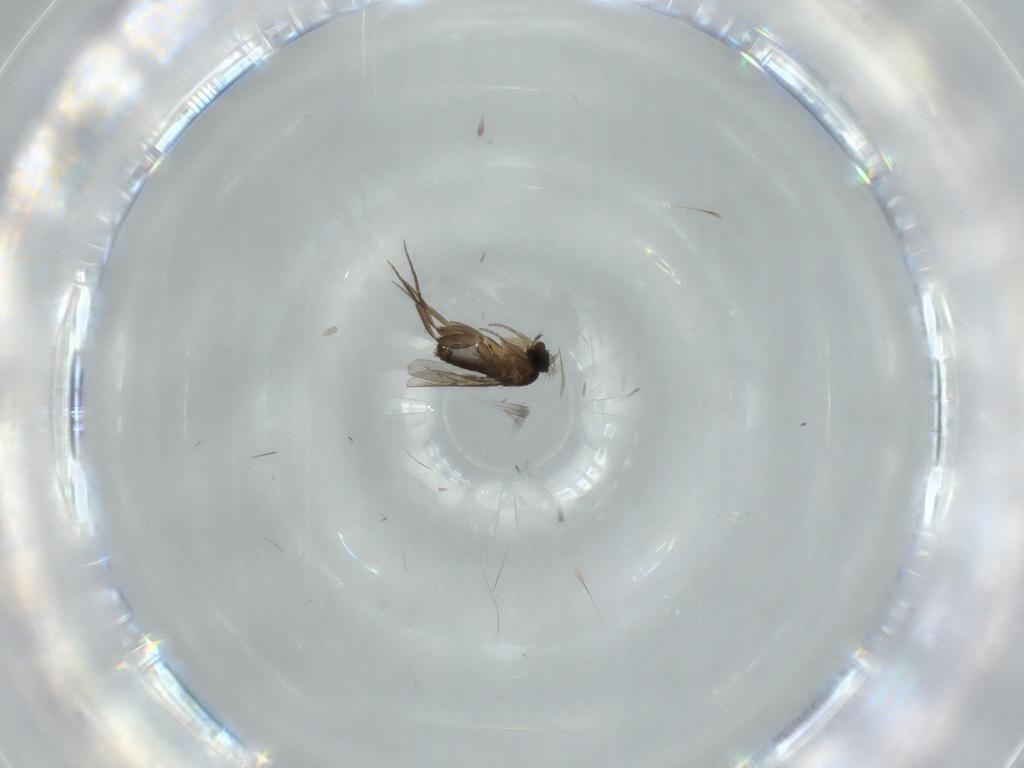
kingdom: Animalia
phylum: Arthropoda
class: Insecta
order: Diptera
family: Phoridae
